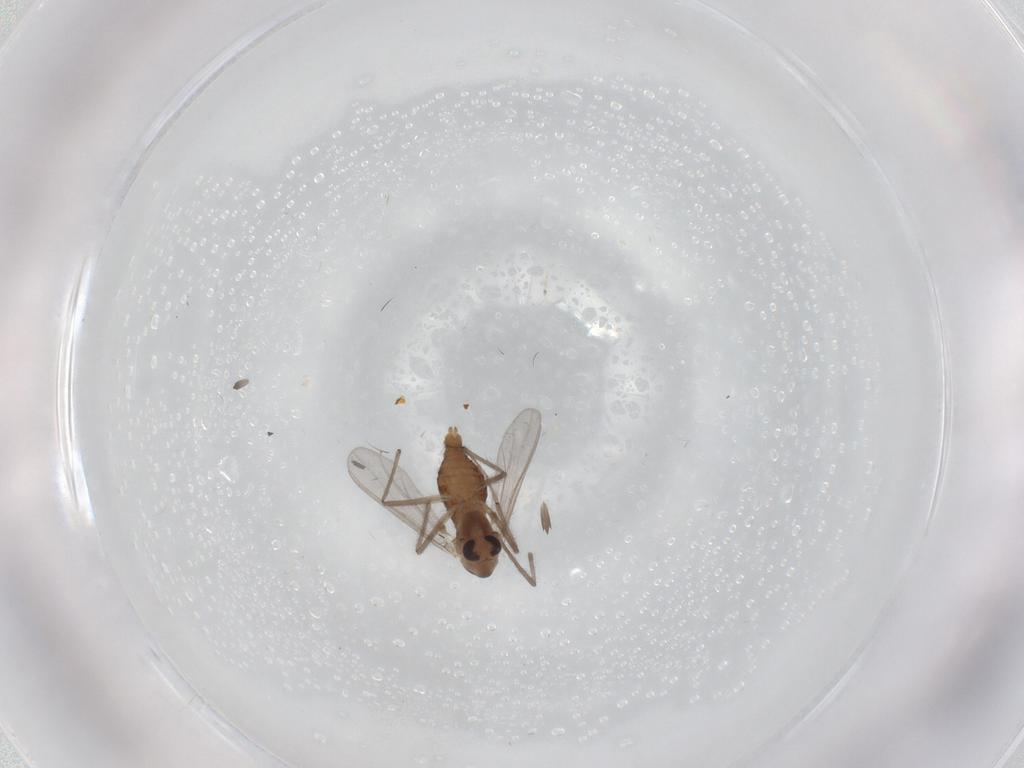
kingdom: Animalia
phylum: Arthropoda
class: Insecta
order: Diptera
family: Chironomidae
